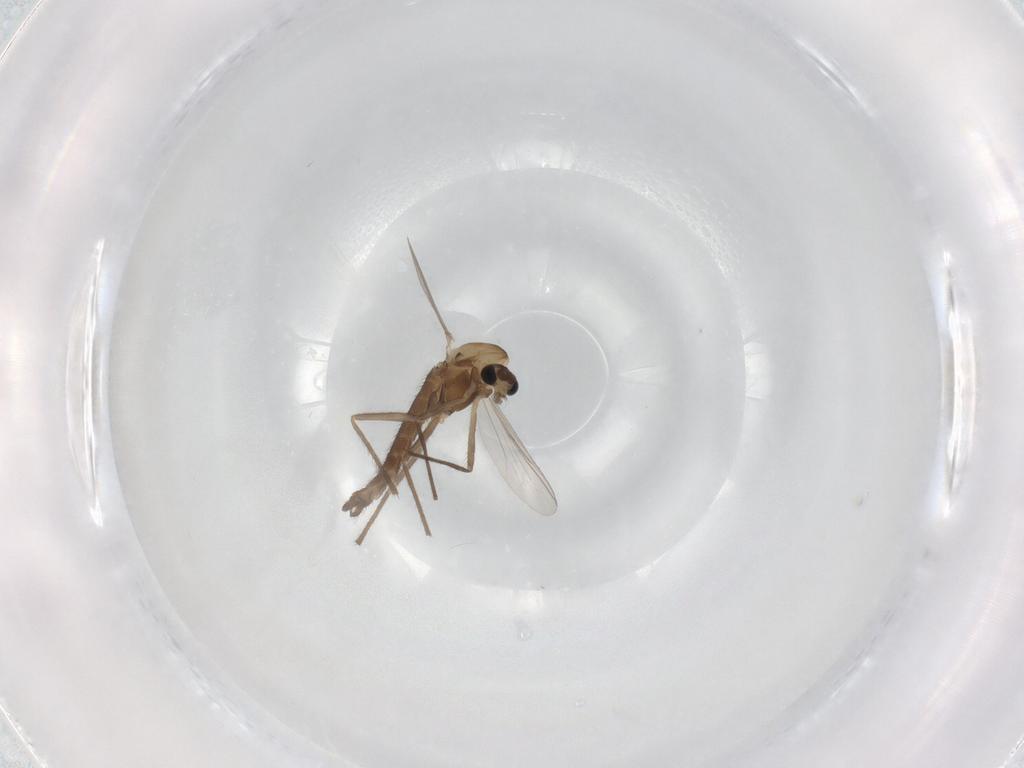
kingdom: Animalia
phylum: Arthropoda
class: Insecta
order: Diptera
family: Chironomidae
